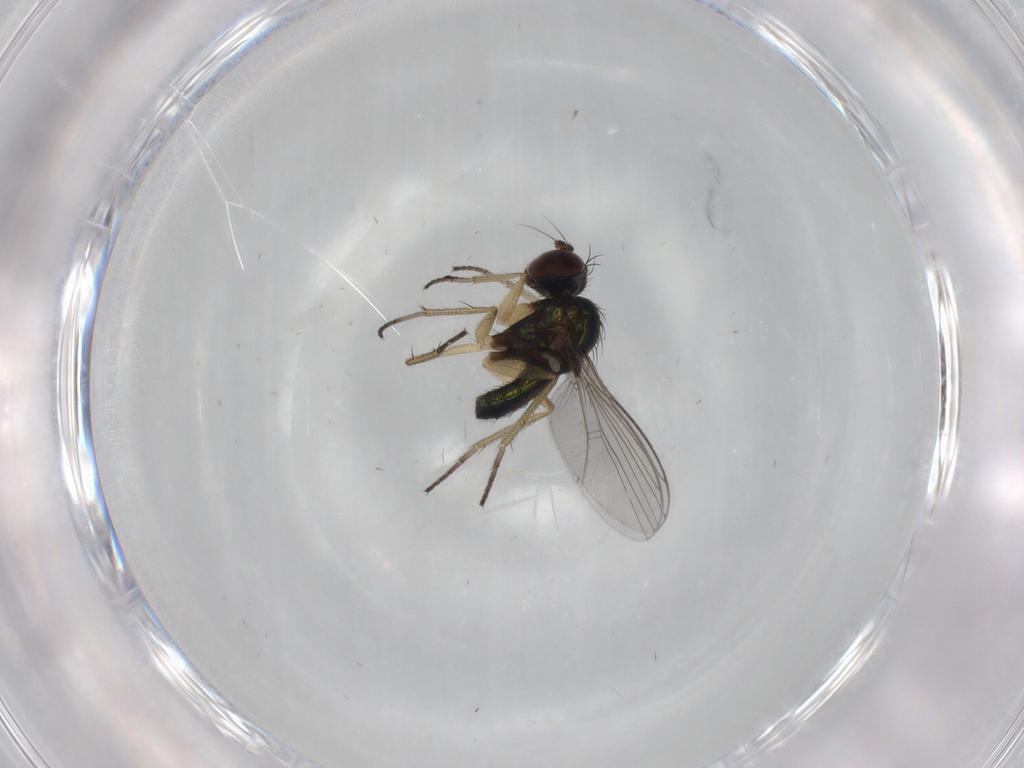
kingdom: Animalia
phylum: Arthropoda
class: Insecta
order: Diptera
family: Dolichopodidae
